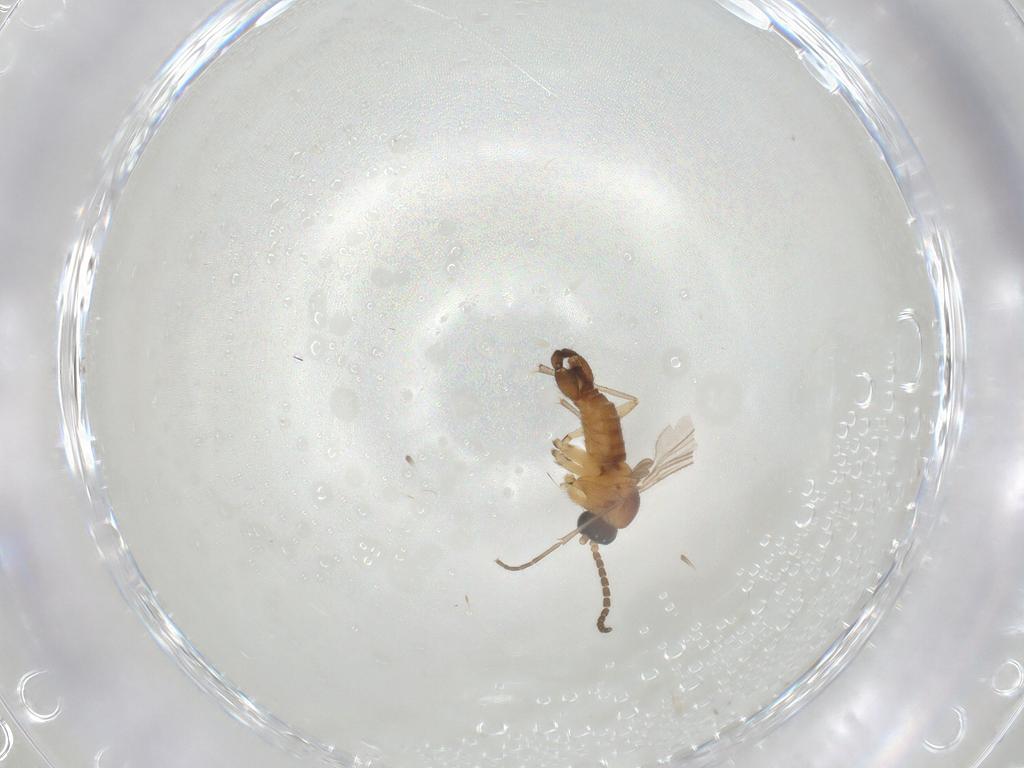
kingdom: Animalia
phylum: Arthropoda
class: Insecta
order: Diptera
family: Sciaridae
